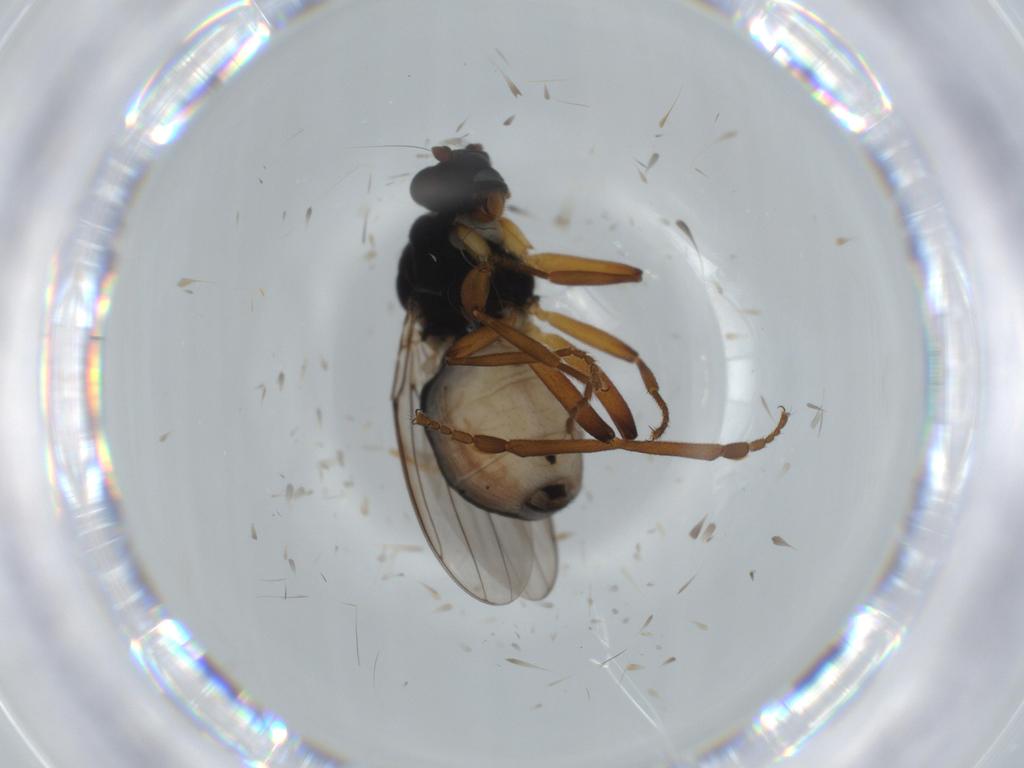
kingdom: Animalia
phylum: Arthropoda
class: Insecta
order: Diptera
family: Sphaeroceridae
